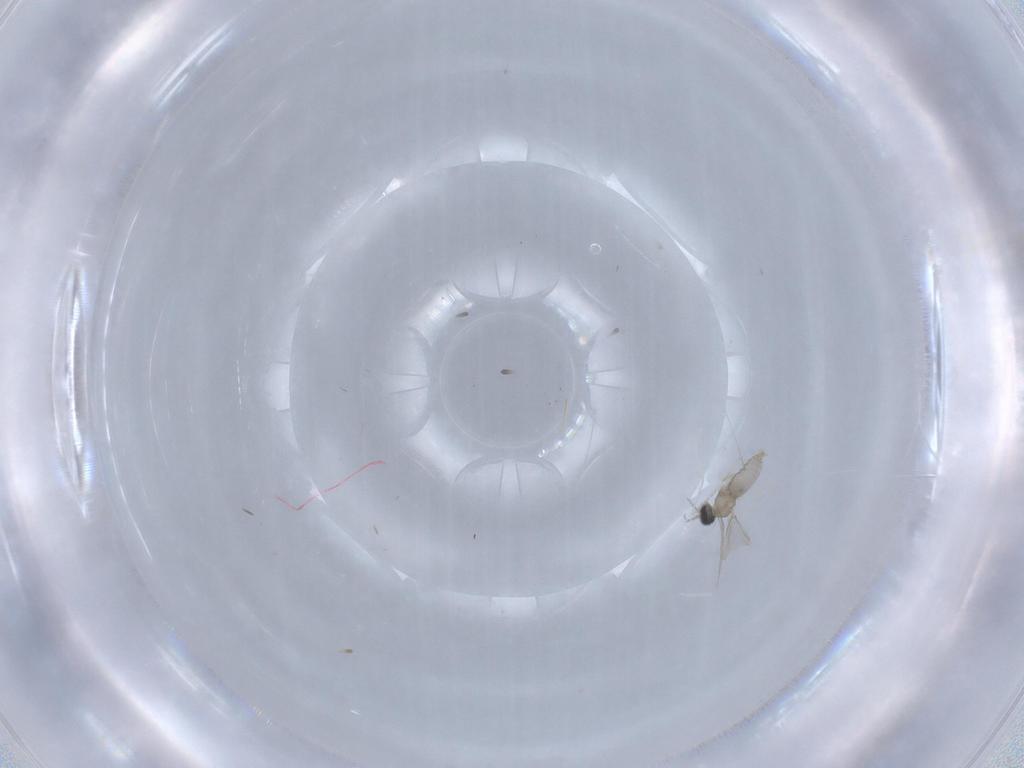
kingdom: Animalia
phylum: Arthropoda
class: Insecta
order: Diptera
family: Cecidomyiidae
